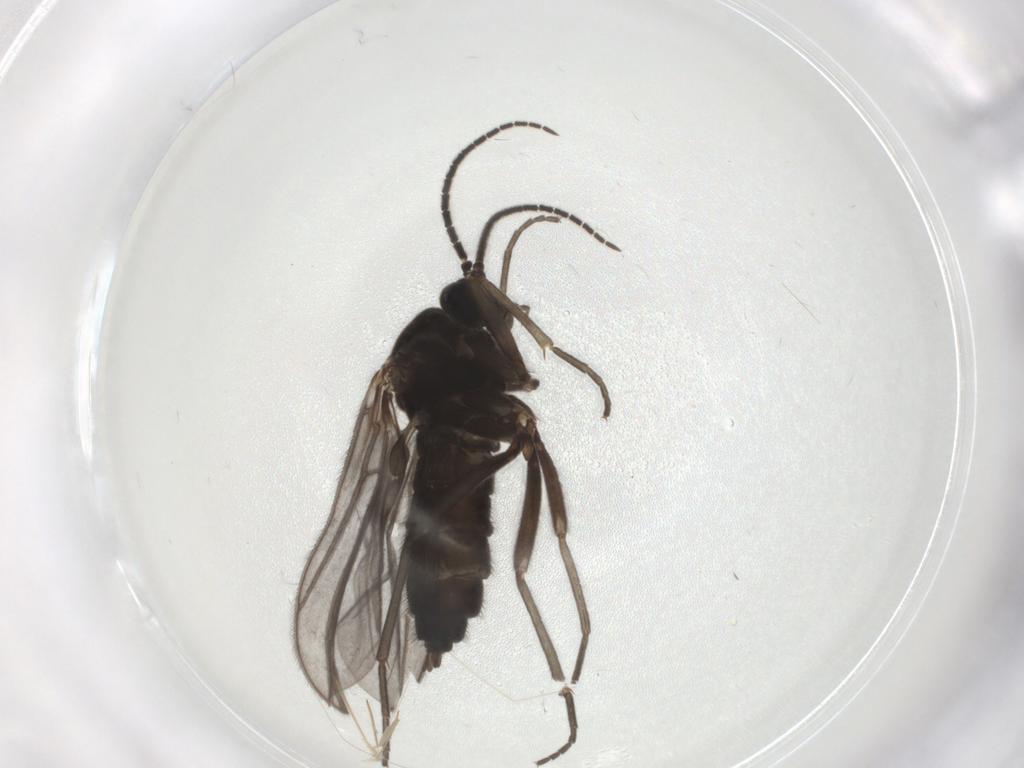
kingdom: Animalia
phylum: Arthropoda
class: Insecta
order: Diptera
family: Sciaridae
